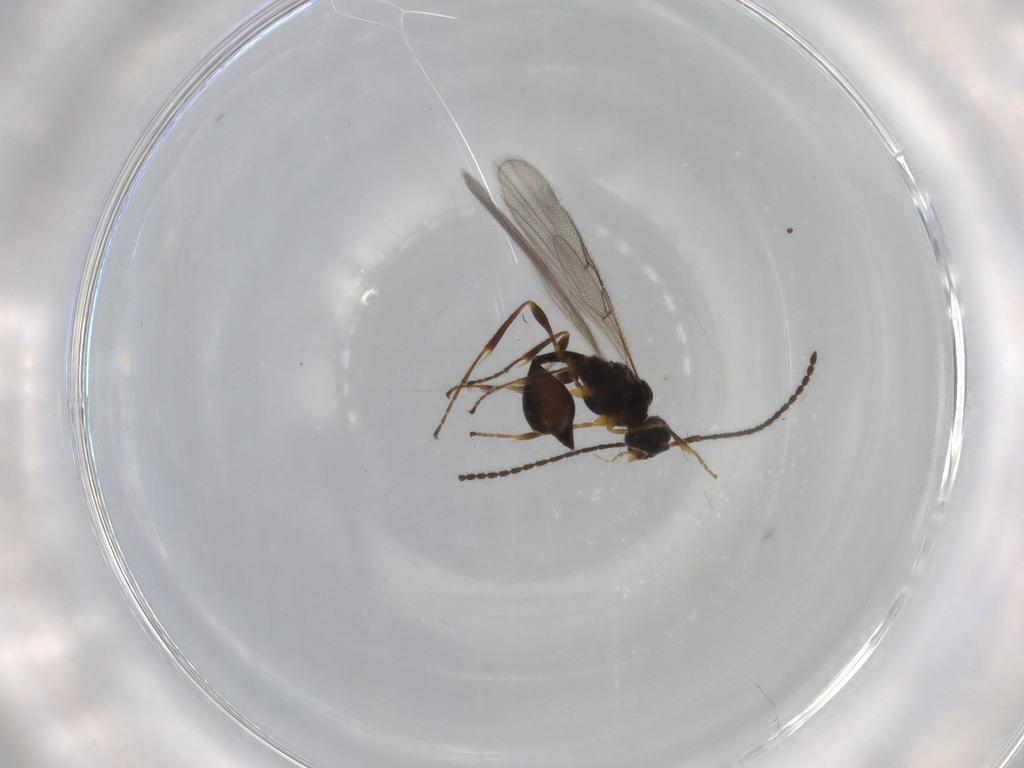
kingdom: Animalia
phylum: Arthropoda
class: Insecta
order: Hymenoptera
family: Diapriidae
